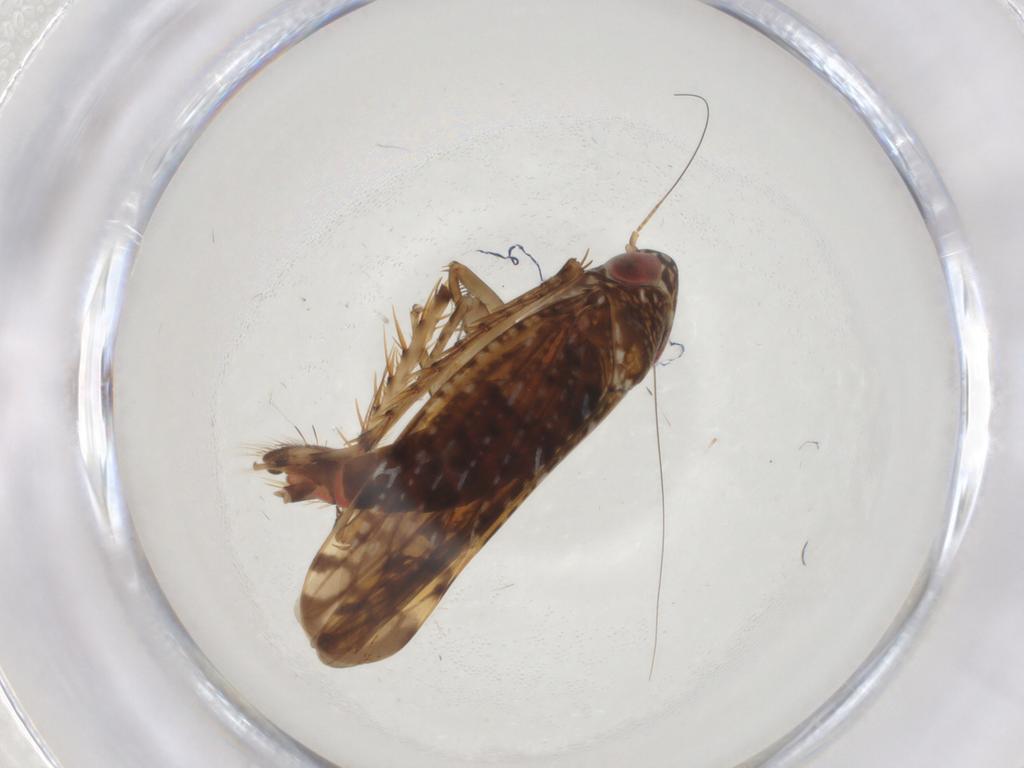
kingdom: Animalia
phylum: Arthropoda
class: Insecta
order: Hemiptera
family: Cicadellidae
